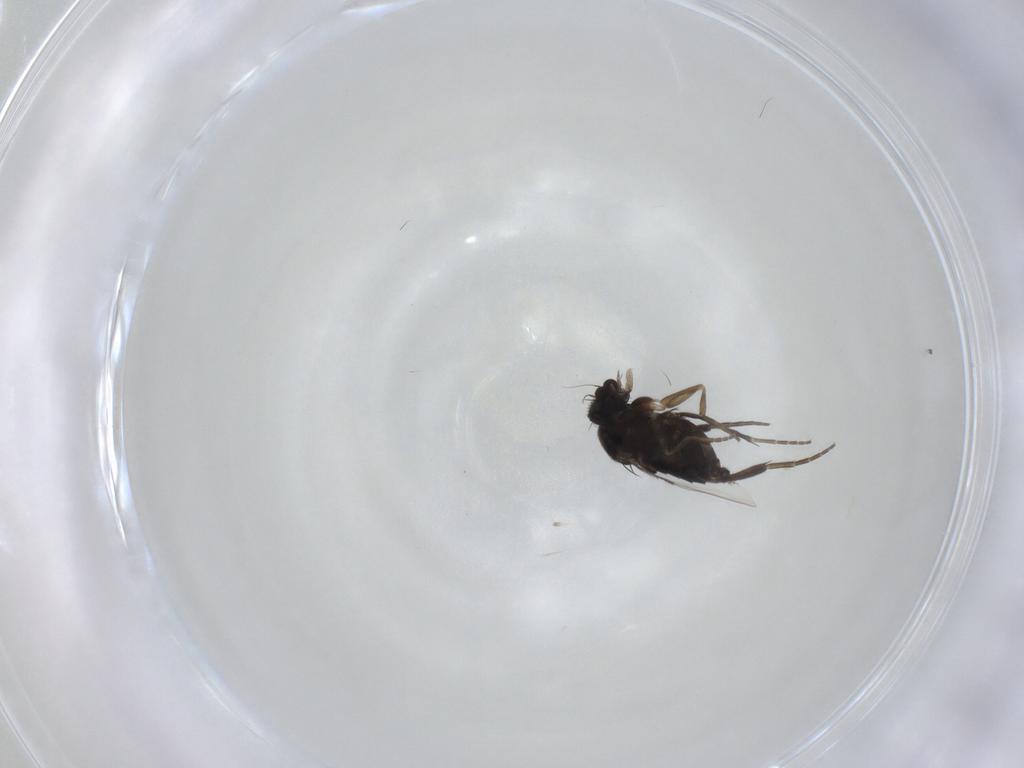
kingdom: Animalia
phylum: Arthropoda
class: Insecta
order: Diptera
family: Phoridae
